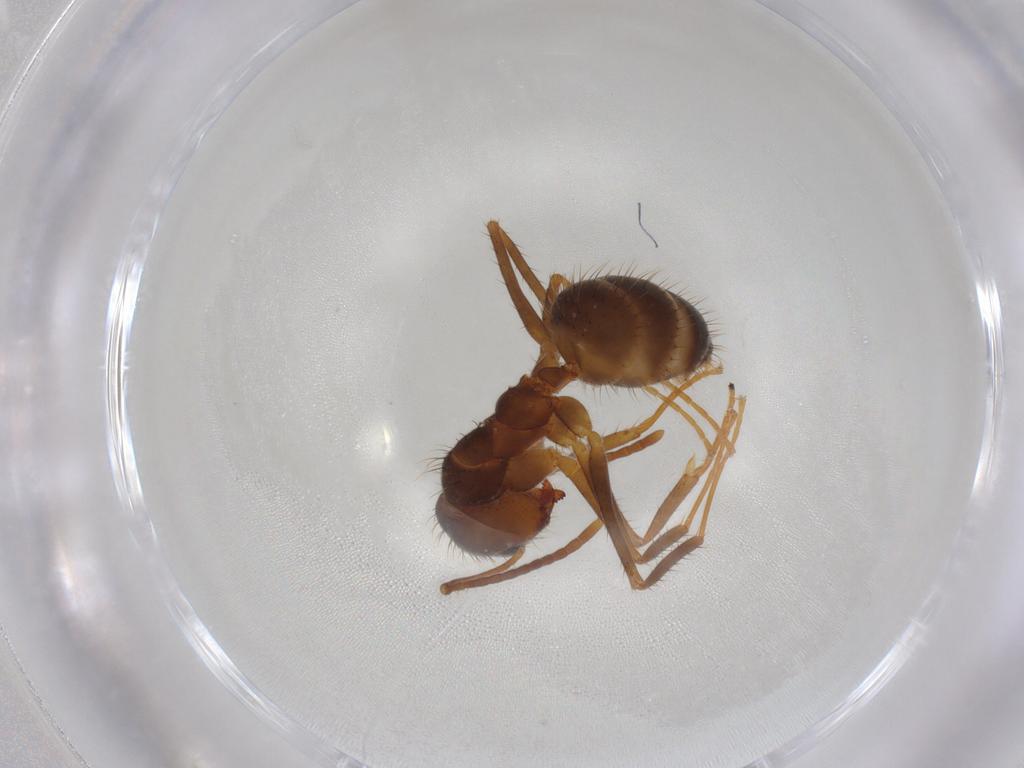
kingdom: Animalia
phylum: Arthropoda
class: Insecta
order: Hymenoptera
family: Formicidae
